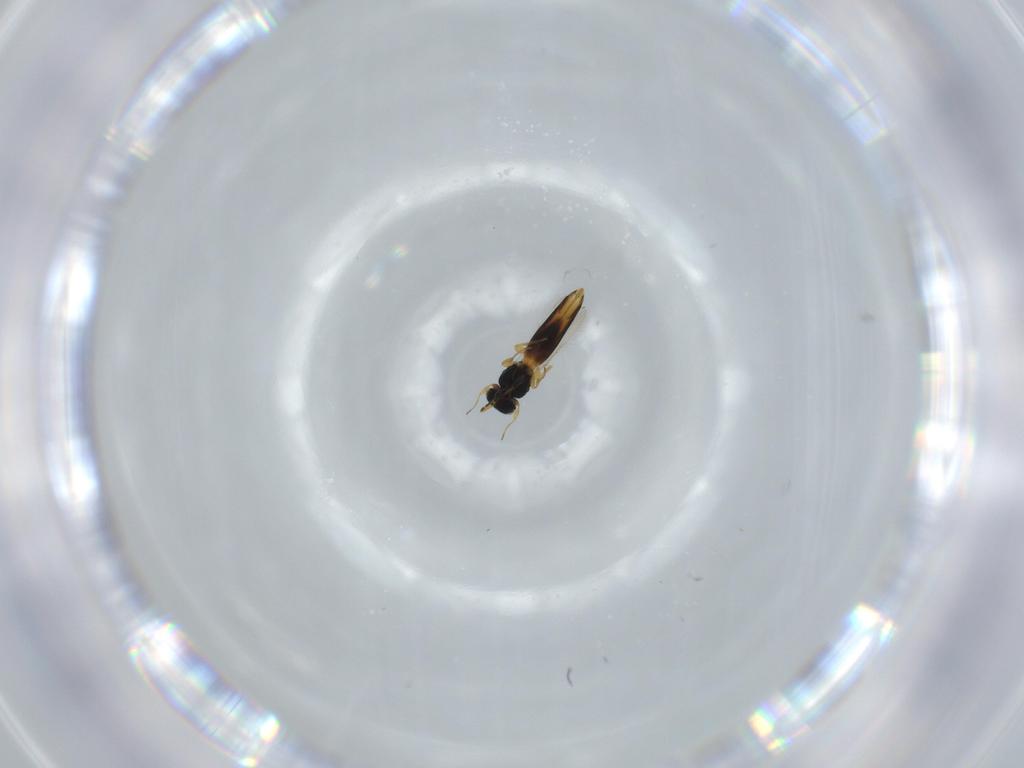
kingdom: Animalia
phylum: Arthropoda
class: Insecta
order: Hymenoptera
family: Scelionidae
